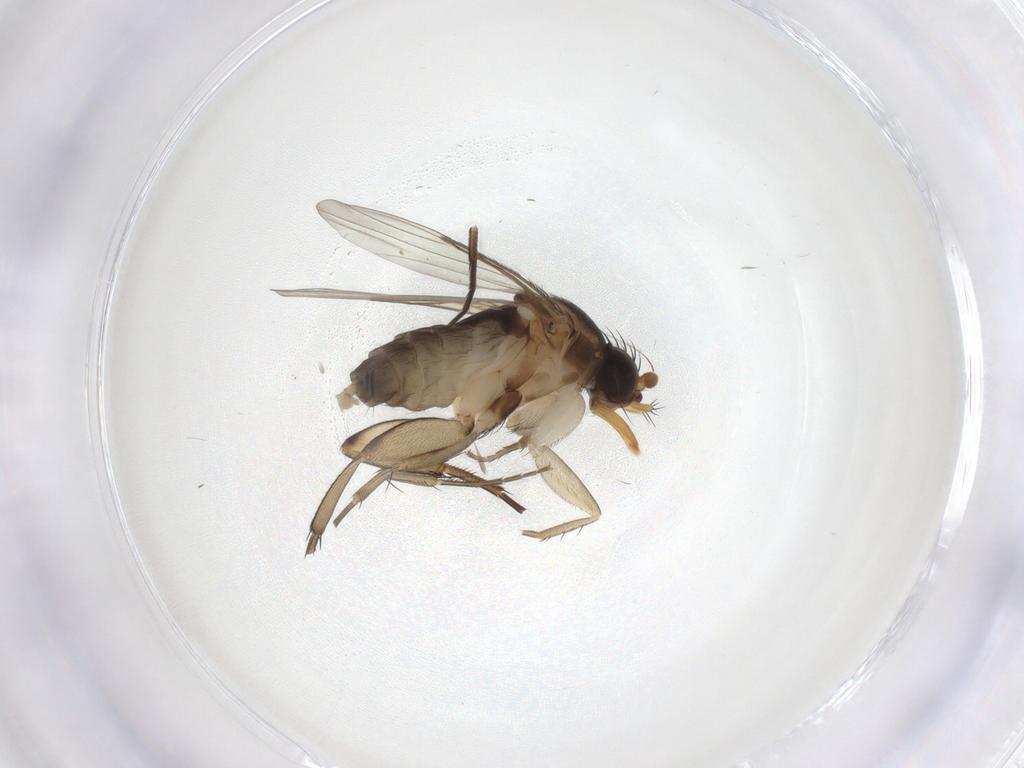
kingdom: Animalia
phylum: Arthropoda
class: Insecta
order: Diptera
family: Phoridae
